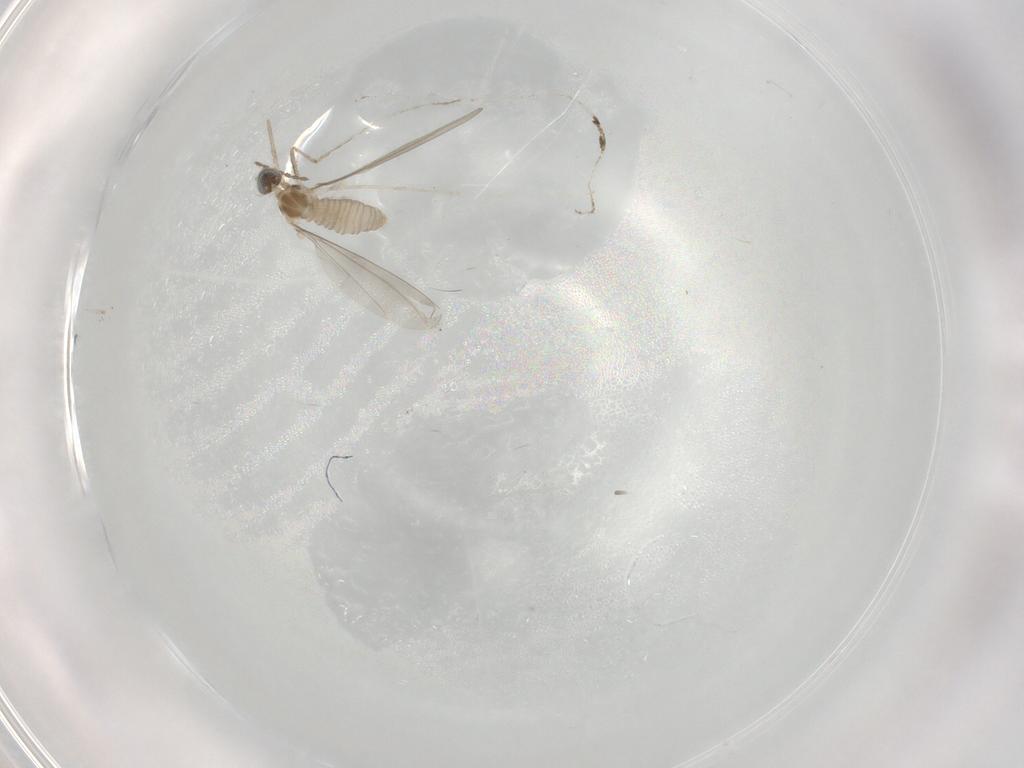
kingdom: Animalia
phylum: Arthropoda
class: Insecta
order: Diptera
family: Cecidomyiidae
